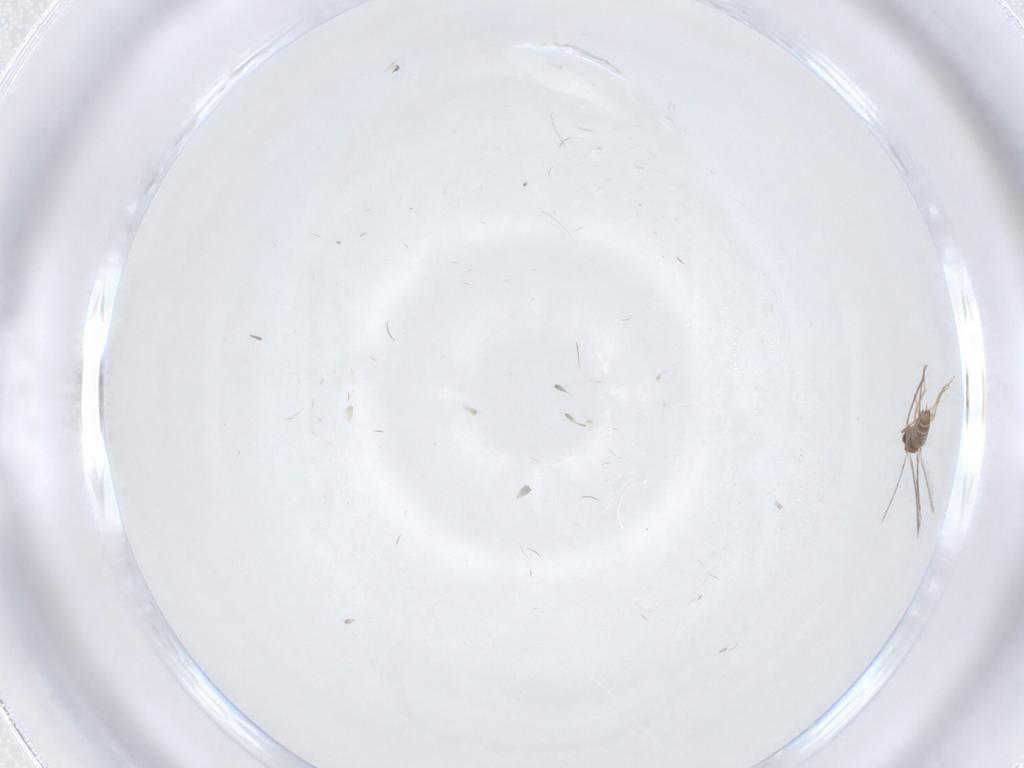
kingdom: Animalia
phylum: Arthropoda
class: Insecta
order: Hymenoptera
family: Mymaridae
